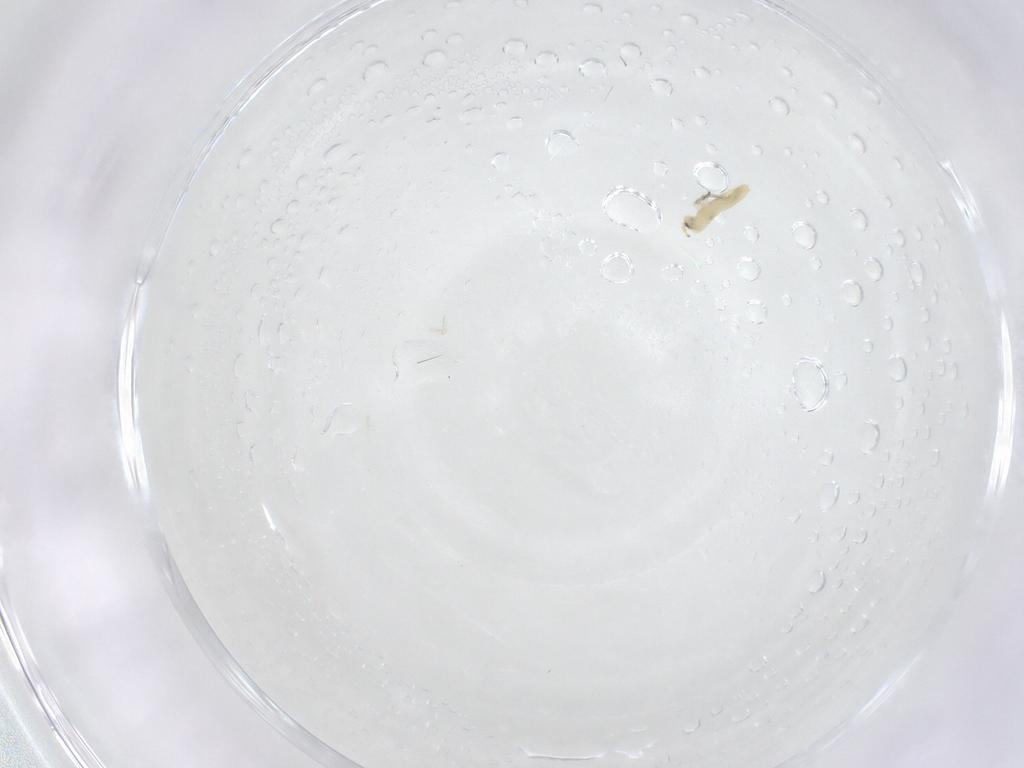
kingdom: Animalia
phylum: Arthropoda
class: Collembola
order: Entomobryomorpha
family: Entomobryidae
